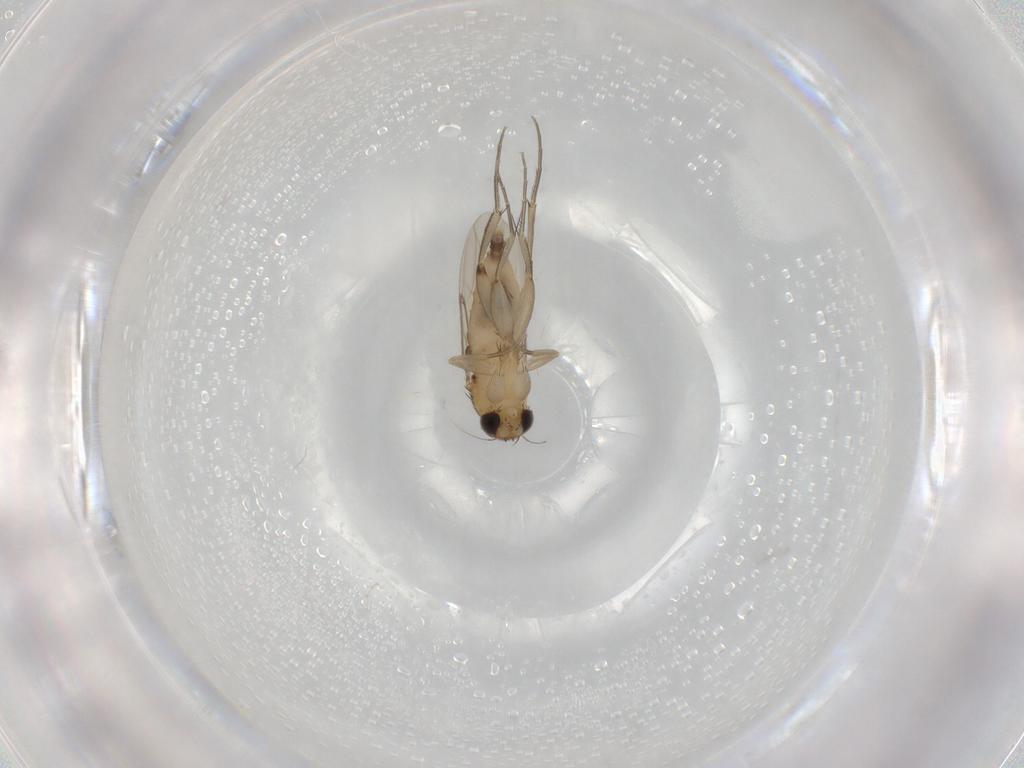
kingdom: Animalia
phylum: Arthropoda
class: Insecta
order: Diptera
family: Phoridae
